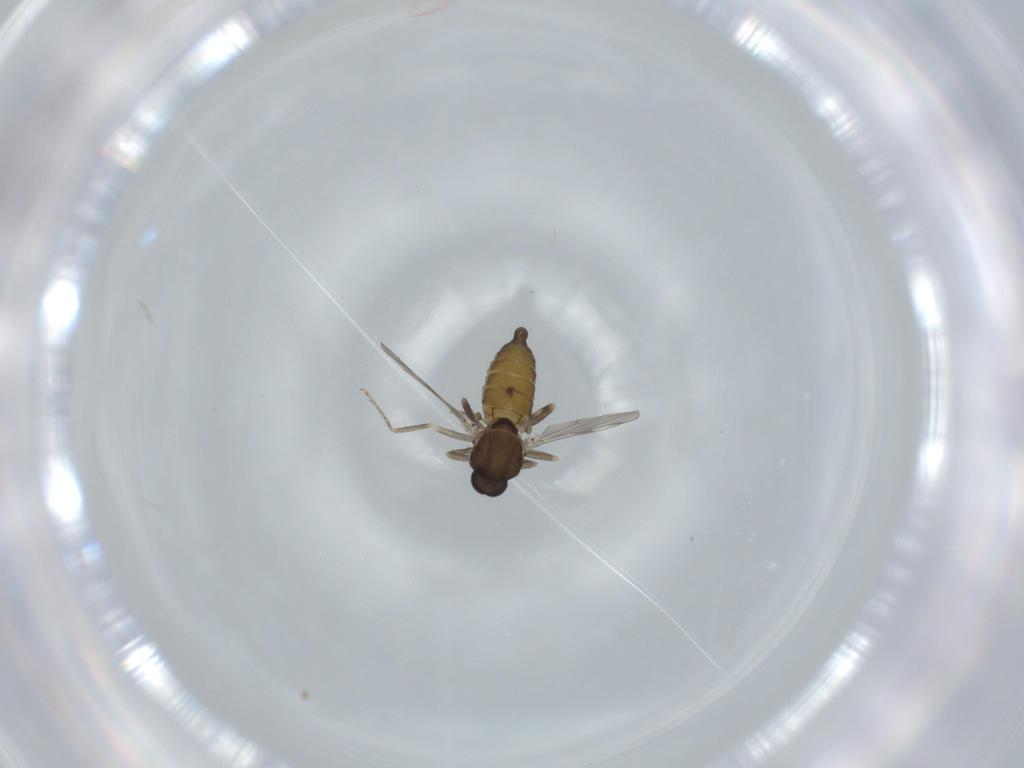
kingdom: Animalia
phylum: Arthropoda
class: Insecta
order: Diptera
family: Ceratopogonidae
